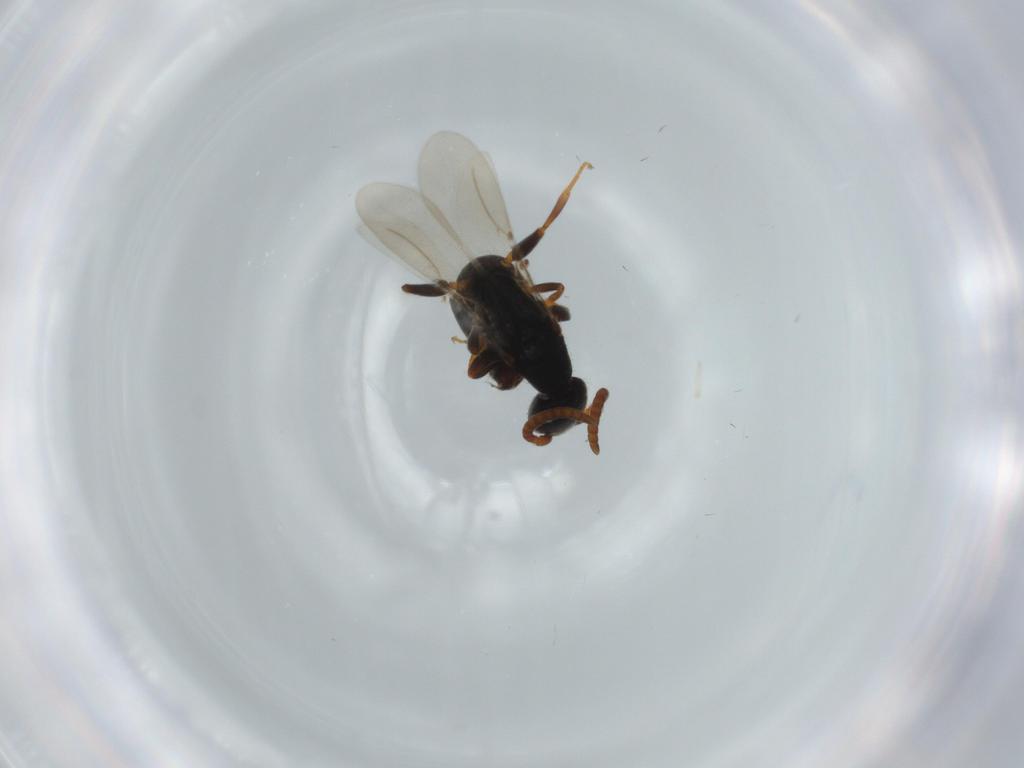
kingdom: Animalia
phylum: Arthropoda
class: Insecta
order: Hymenoptera
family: Bethylidae
